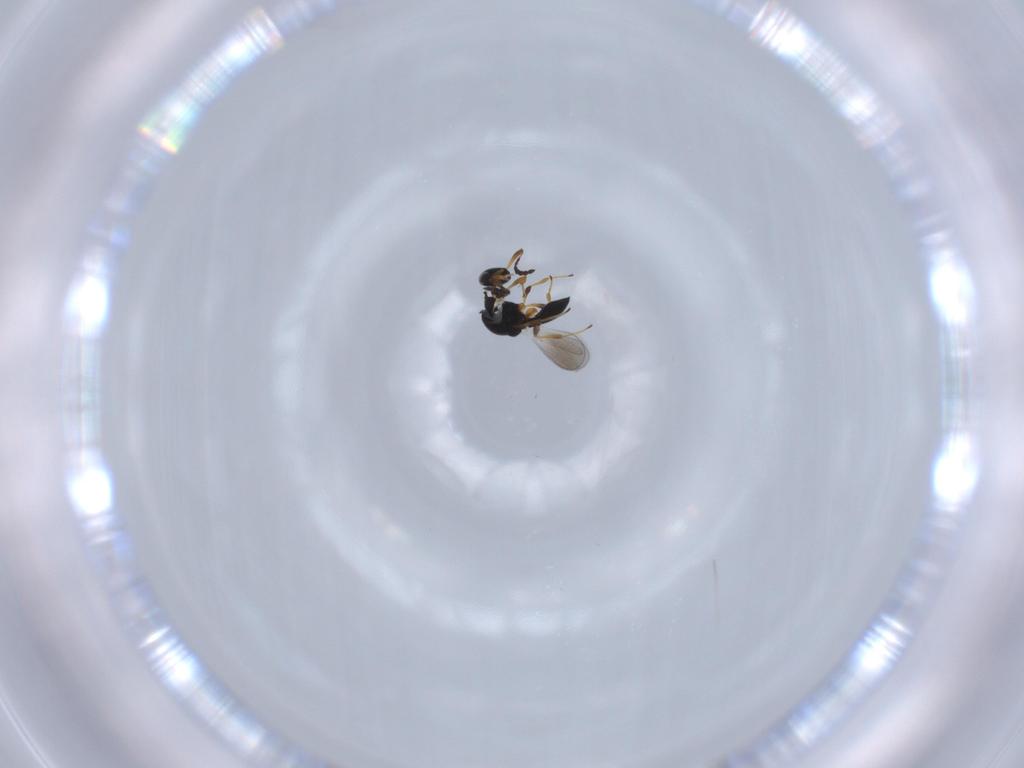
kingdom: Animalia
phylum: Arthropoda
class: Insecta
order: Hymenoptera
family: Platygastridae
